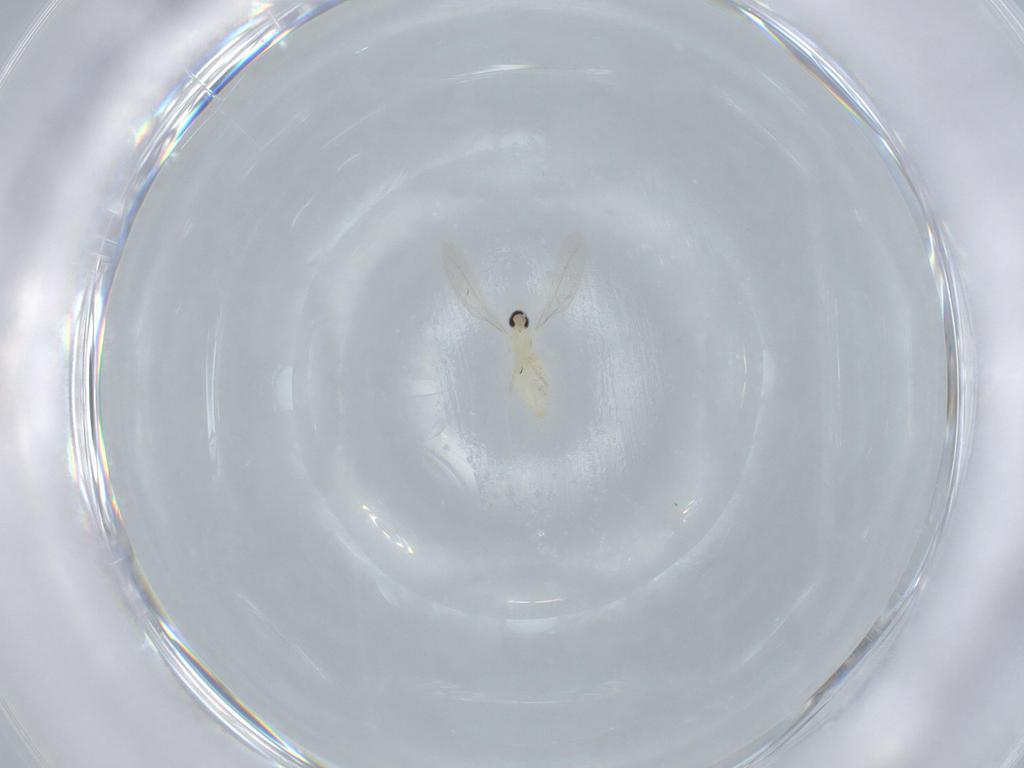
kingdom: Animalia
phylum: Arthropoda
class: Insecta
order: Diptera
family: Cecidomyiidae
